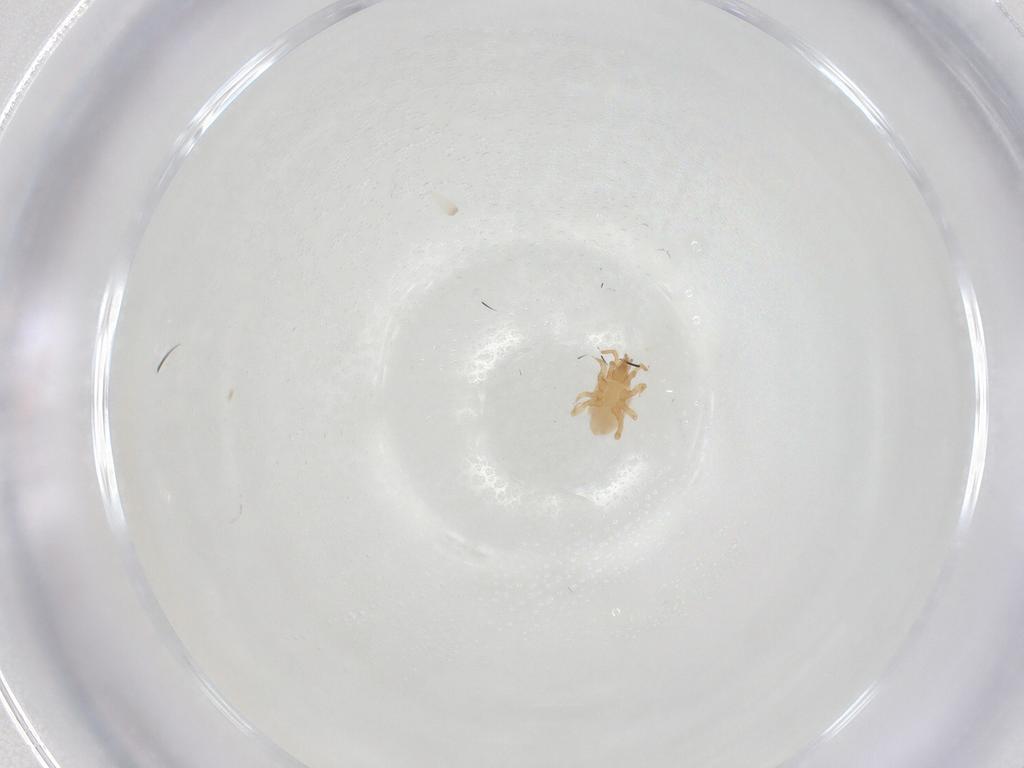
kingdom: Animalia
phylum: Arthropoda
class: Arachnida
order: Mesostigmata
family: Parasitidae
